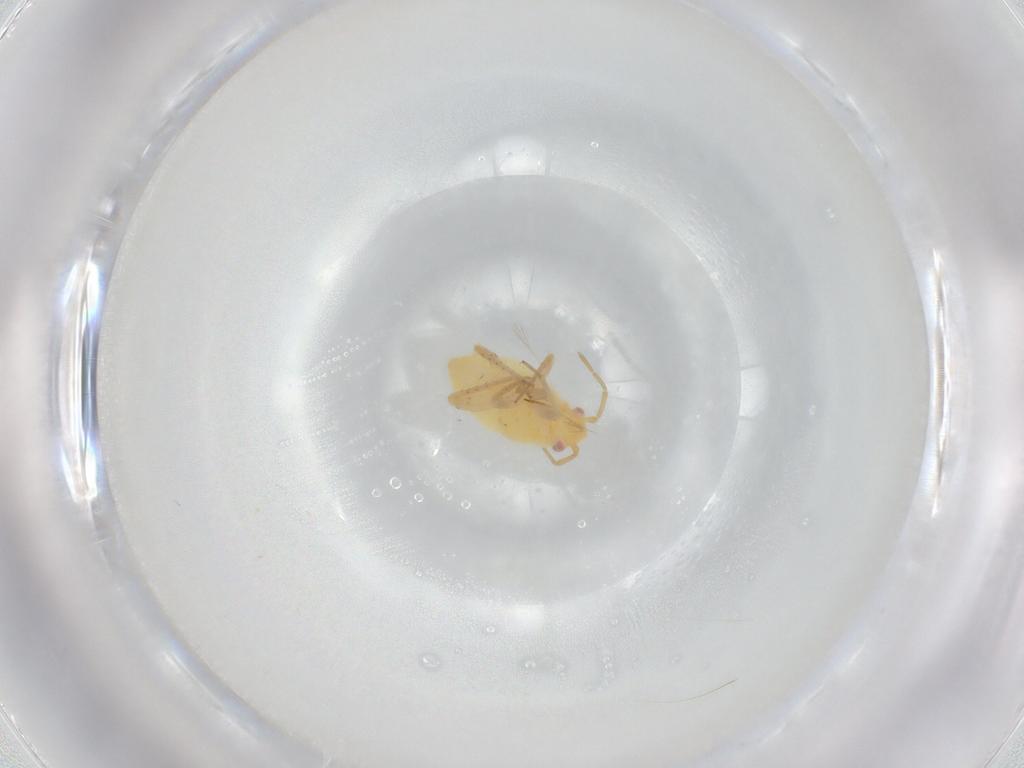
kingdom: Animalia
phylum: Arthropoda
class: Insecta
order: Hemiptera
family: Miridae
